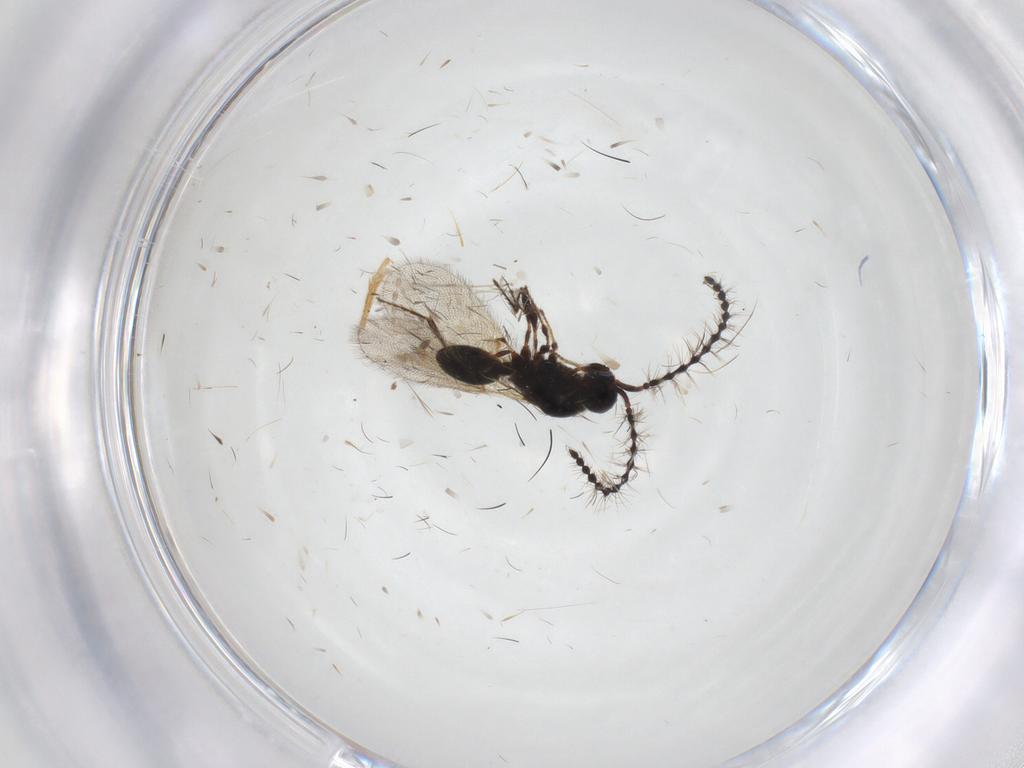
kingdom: Animalia
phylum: Arthropoda
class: Insecta
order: Hymenoptera
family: Diapriidae
